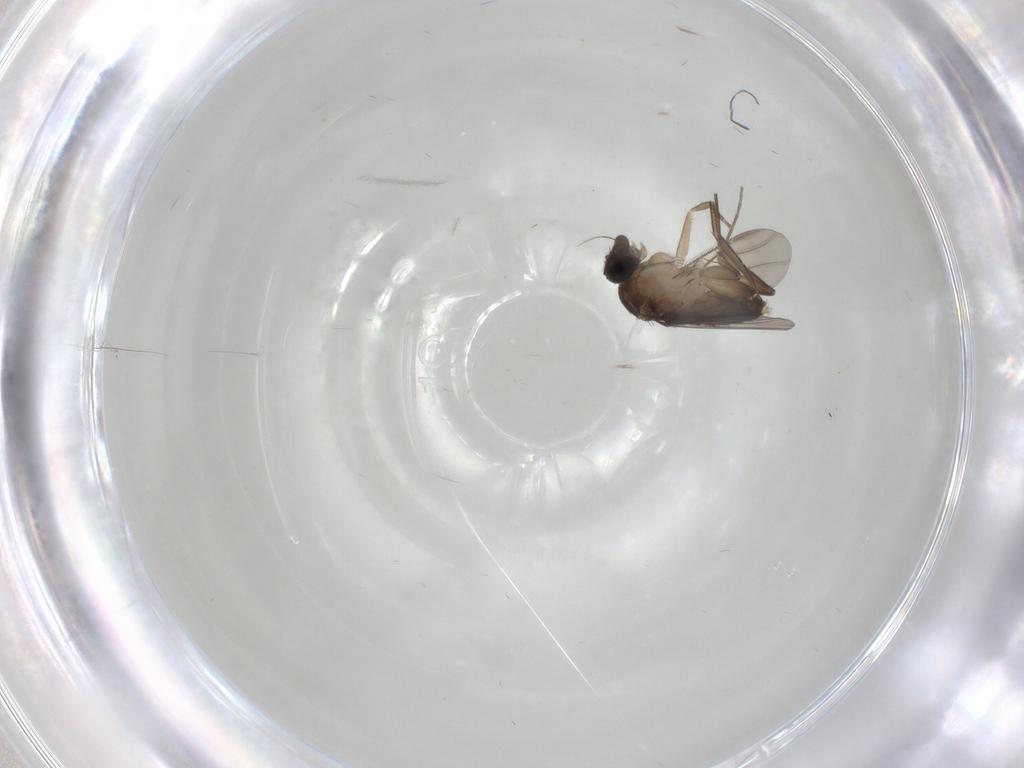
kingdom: Animalia
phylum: Arthropoda
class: Insecta
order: Diptera
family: Phoridae
